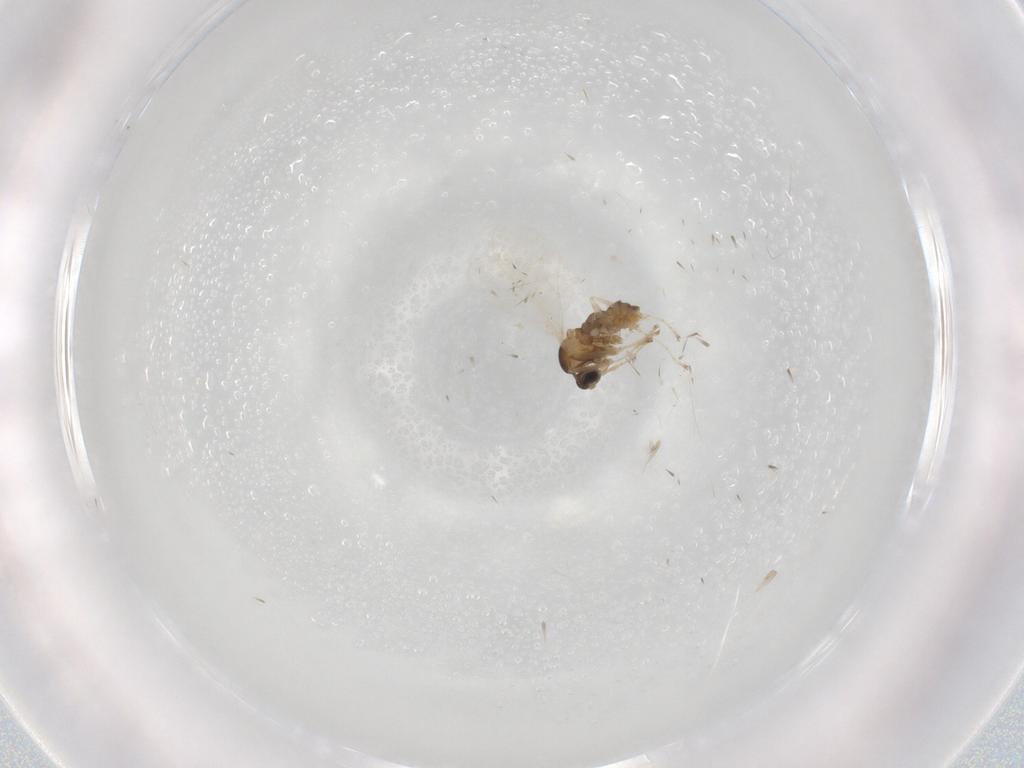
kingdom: Animalia
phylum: Arthropoda
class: Insecta
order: Diptera
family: Cecidomyiidae
